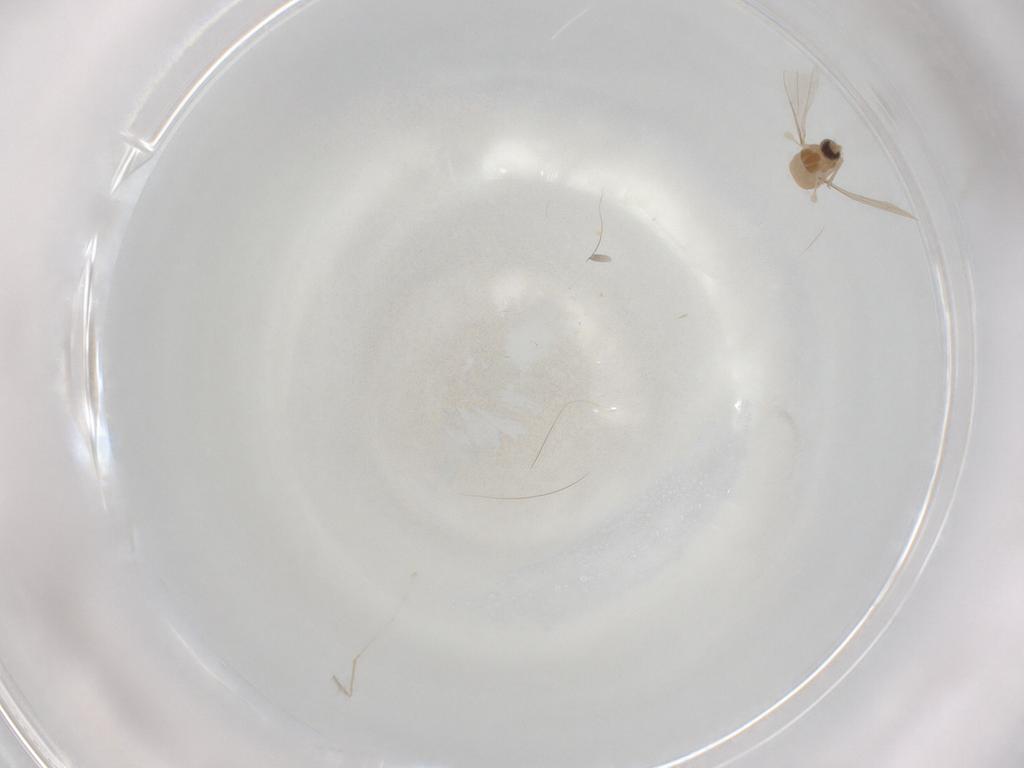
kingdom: Animalia
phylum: Arthropoda
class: Insecta
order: Diptera
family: Cecidomyiidae
